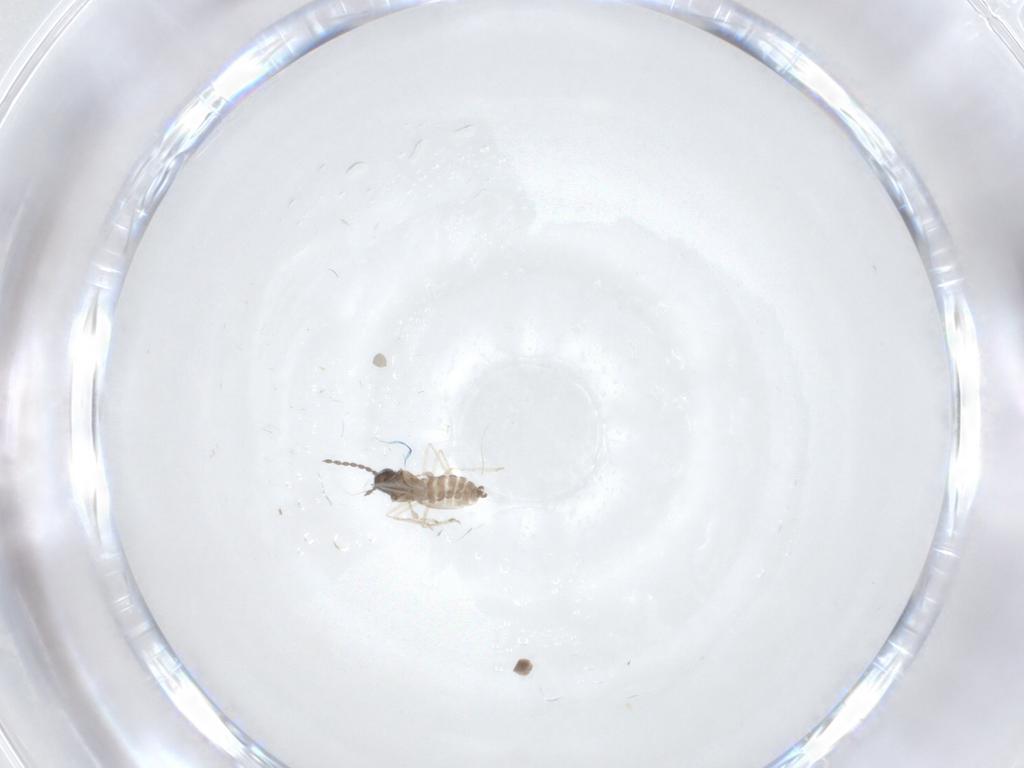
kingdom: Animalia
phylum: Arthropoda
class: Insecta
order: Diptera
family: Cecidomyiidae
